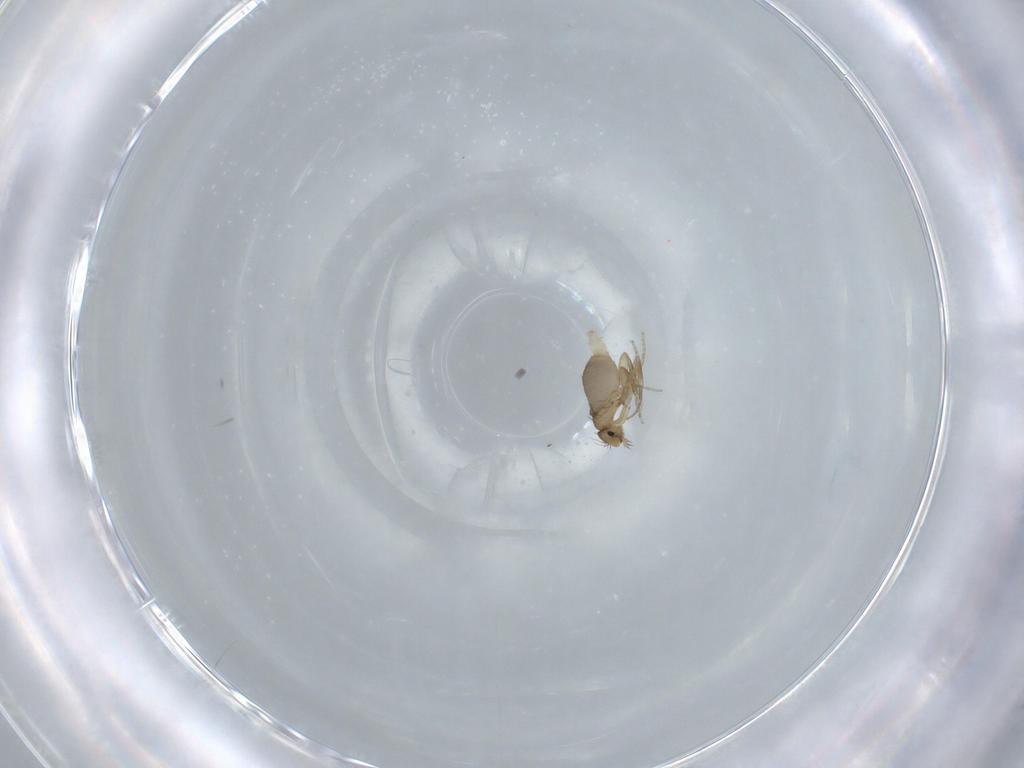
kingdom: Animalia
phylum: Arthropoda
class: Insecta
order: Diptera
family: Phoridae
